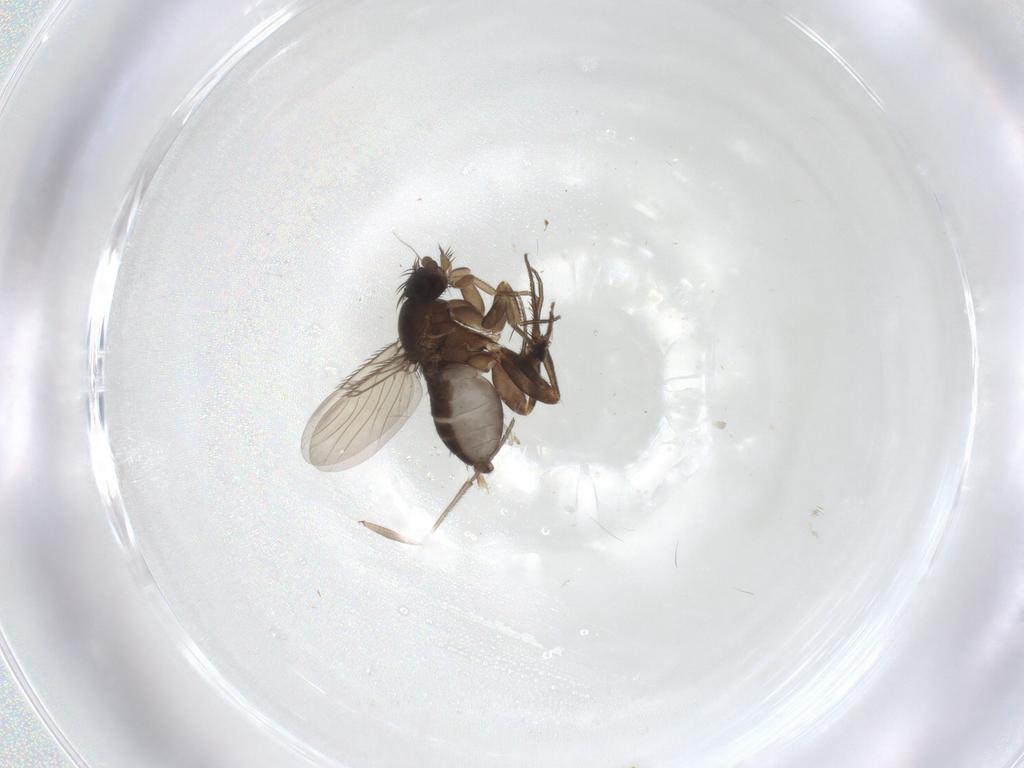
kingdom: Animalia
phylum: Arthropoda
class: Insecta
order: Diptera
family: Phoridae
